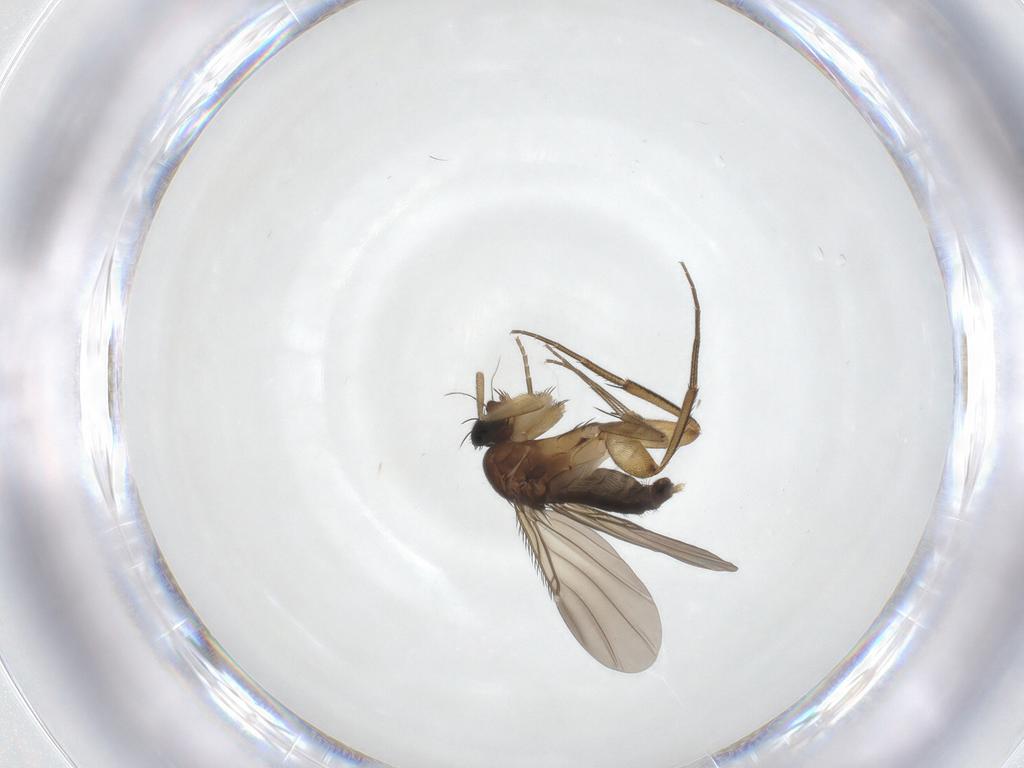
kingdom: Animalia
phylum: Arthropoda
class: Insecta
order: Diptera
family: Phoridae
